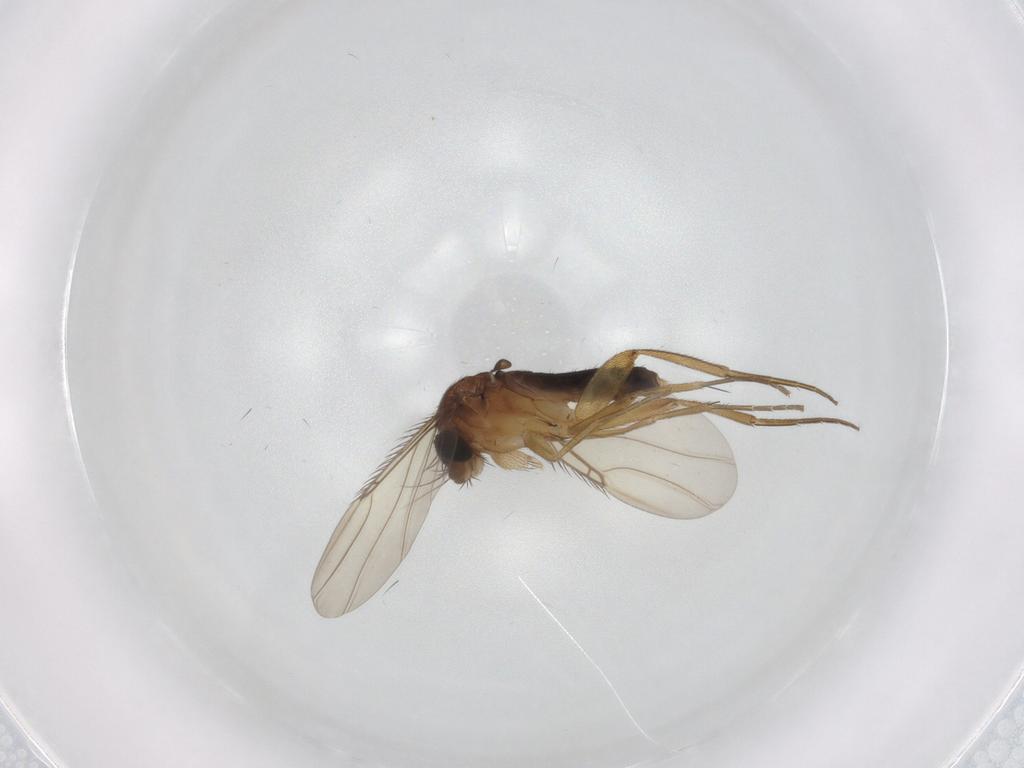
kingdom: Animalia
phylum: Arthropoda
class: Insecta
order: Diptera
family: Phoridae
